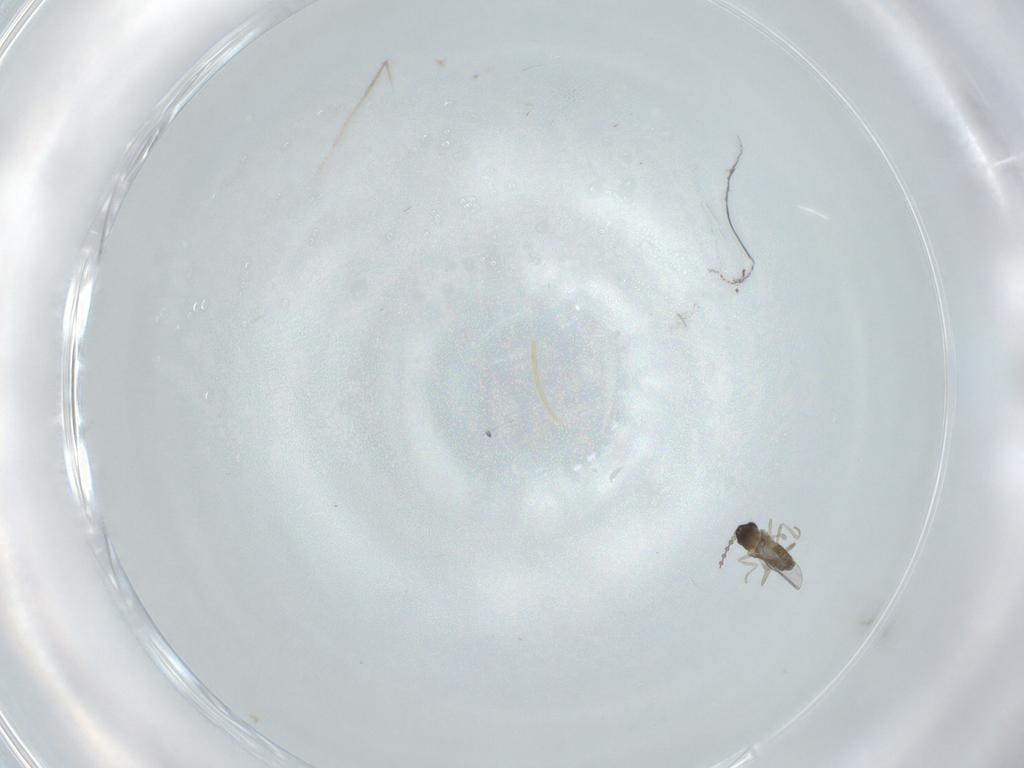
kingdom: Animalia
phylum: Arthropoda
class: Insecta
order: Diptera
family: Cecidomyiidae
